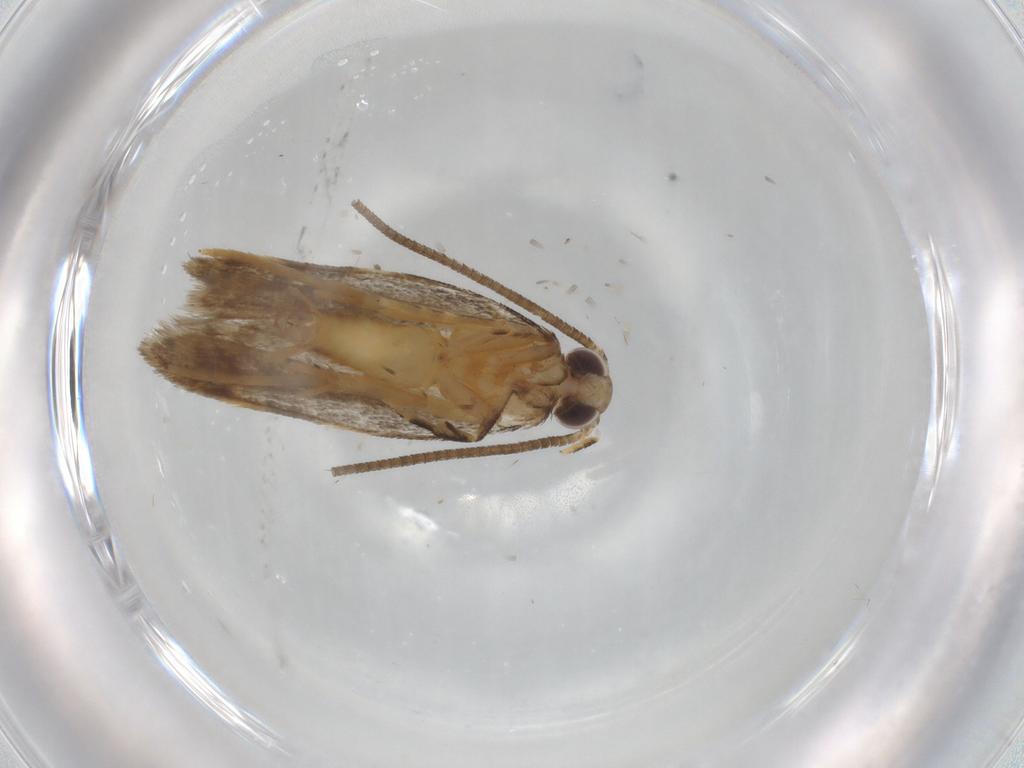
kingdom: Animalia
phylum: Arthropoda
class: Insecta
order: Lepidoptera
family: Autostichidae
